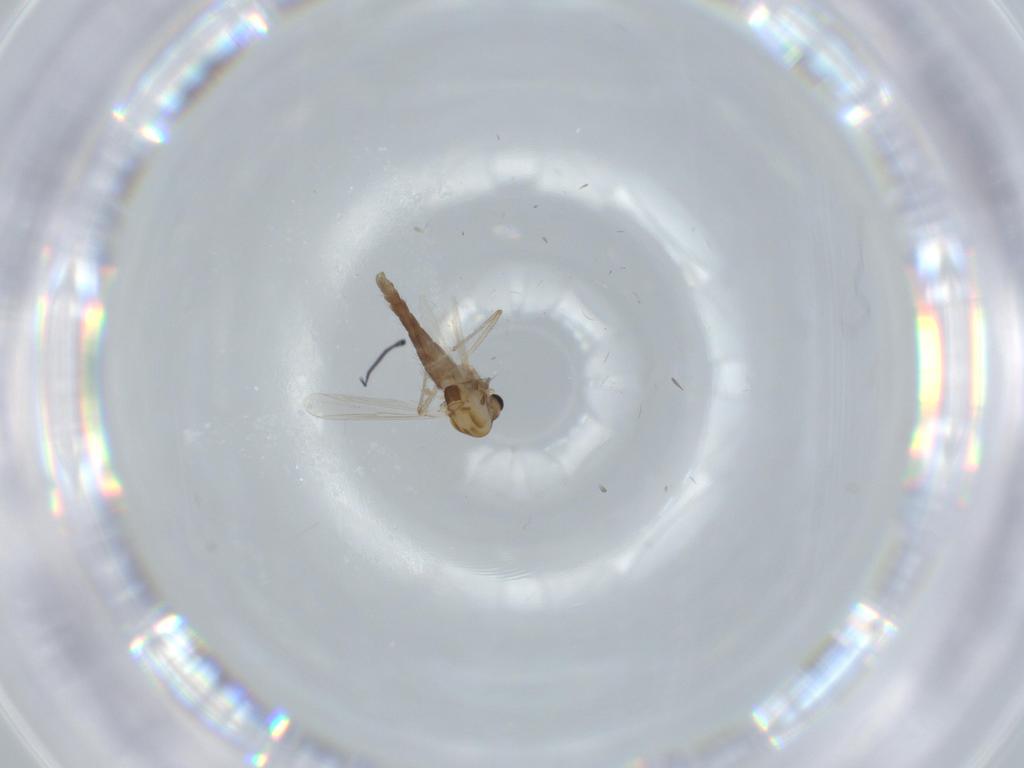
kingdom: Animalia
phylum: Arthropoda
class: Insecta
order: Diptera
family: Chironomidae
